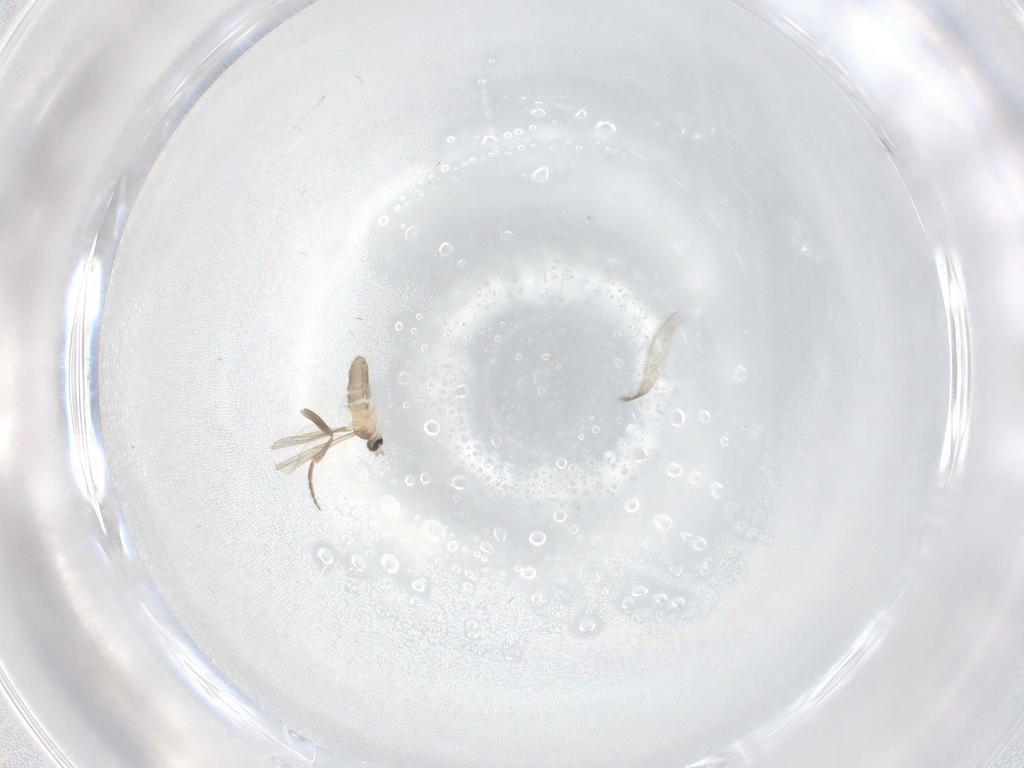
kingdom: Animalia
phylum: Arthropoda
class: Insecta
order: Diptera
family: Cecidomyiidae
